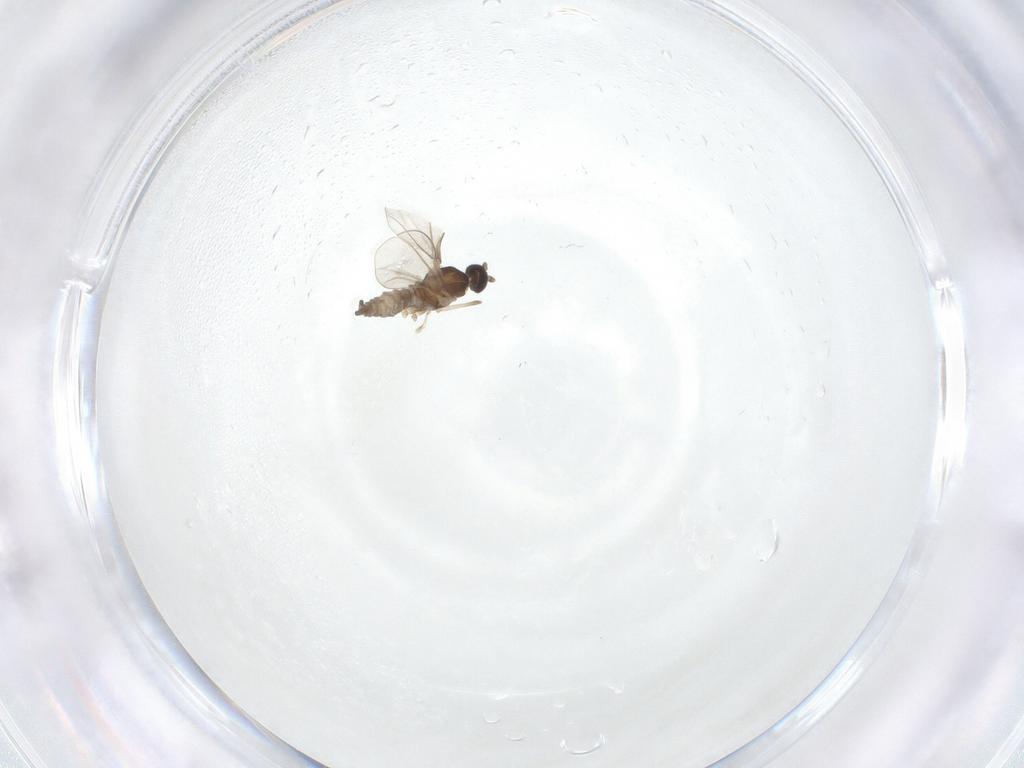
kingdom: Animalia
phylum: Arthropoda
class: Insecta
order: Diptera
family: Cecidomyiidae
